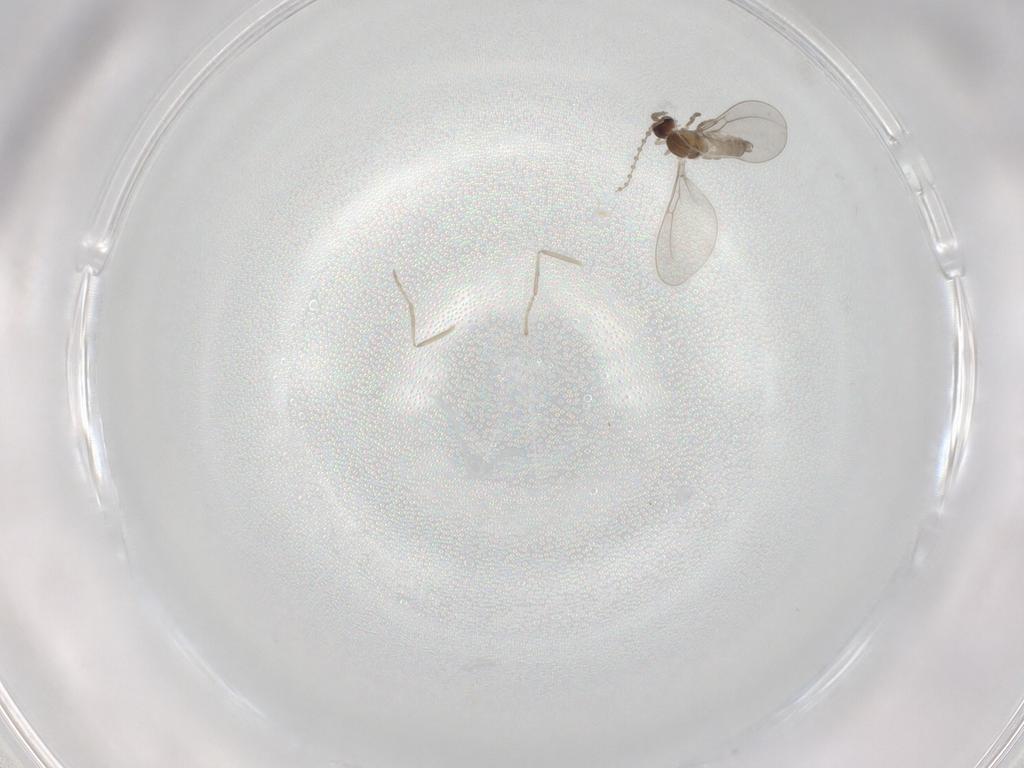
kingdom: Animalia
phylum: Arthropoda
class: Insecta
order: Diptera
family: Cecidomyiidae
